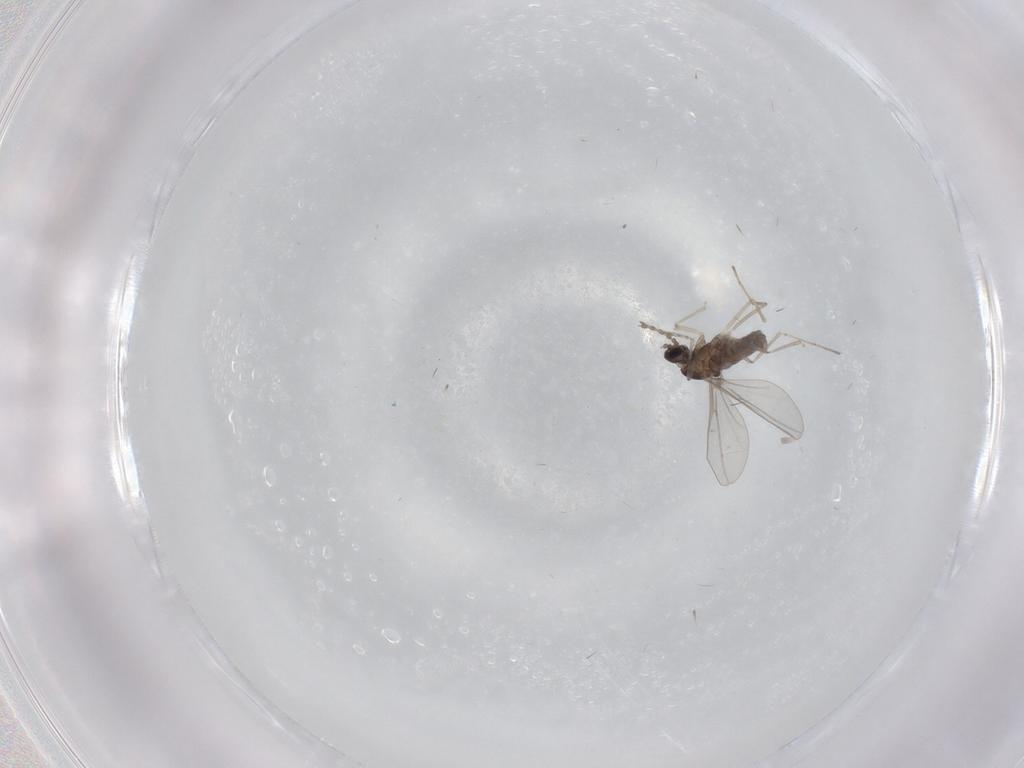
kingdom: Animalia
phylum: Arthropoda
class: Insecta
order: Diptera
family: Cecidomyiidae
